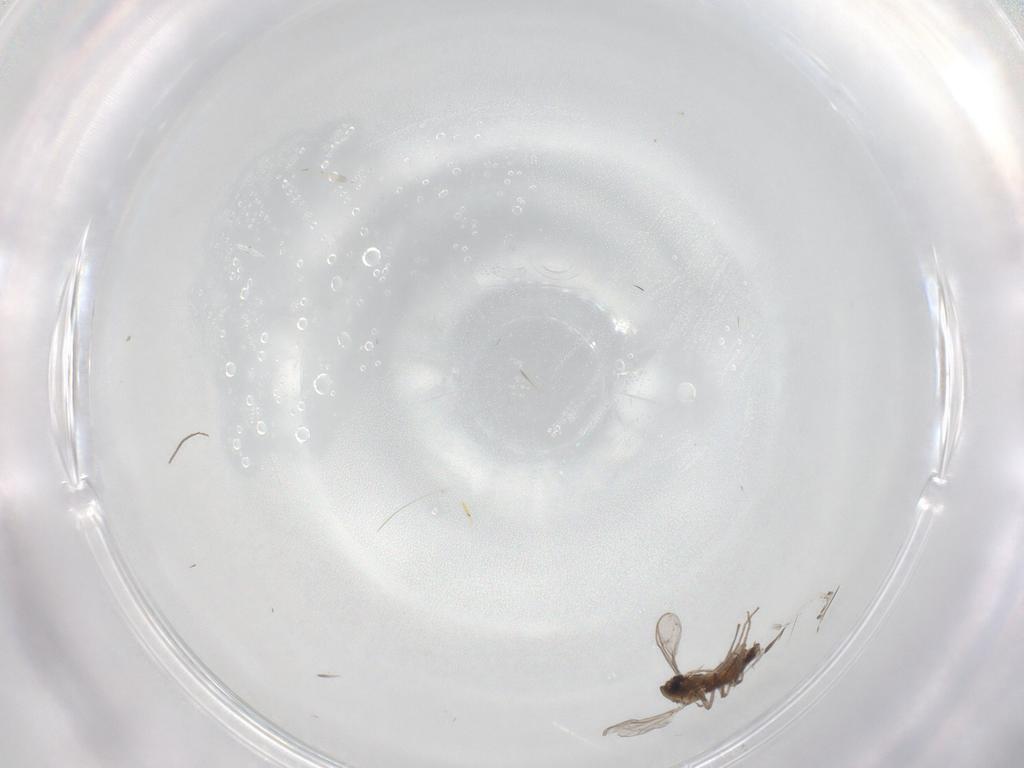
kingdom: Animalia
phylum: Arthropoda
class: Insecta
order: Diptera
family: Chironomidae
